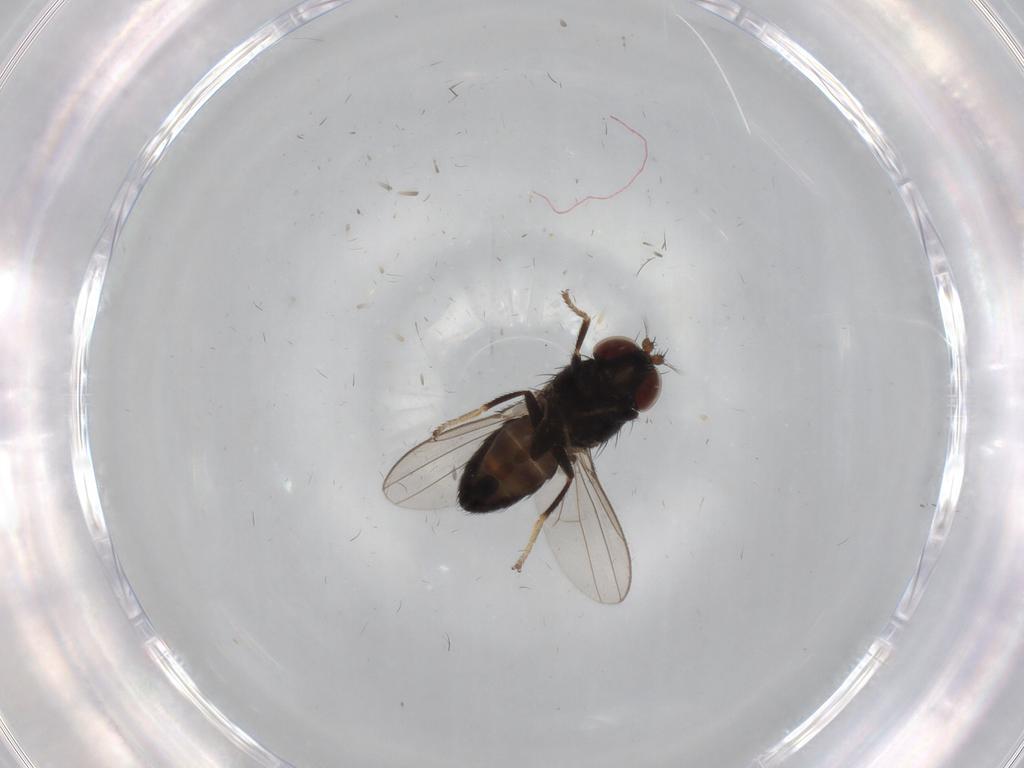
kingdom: Animalia
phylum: Arthropoda
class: Insecta
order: Diptera
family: Ephydridae
